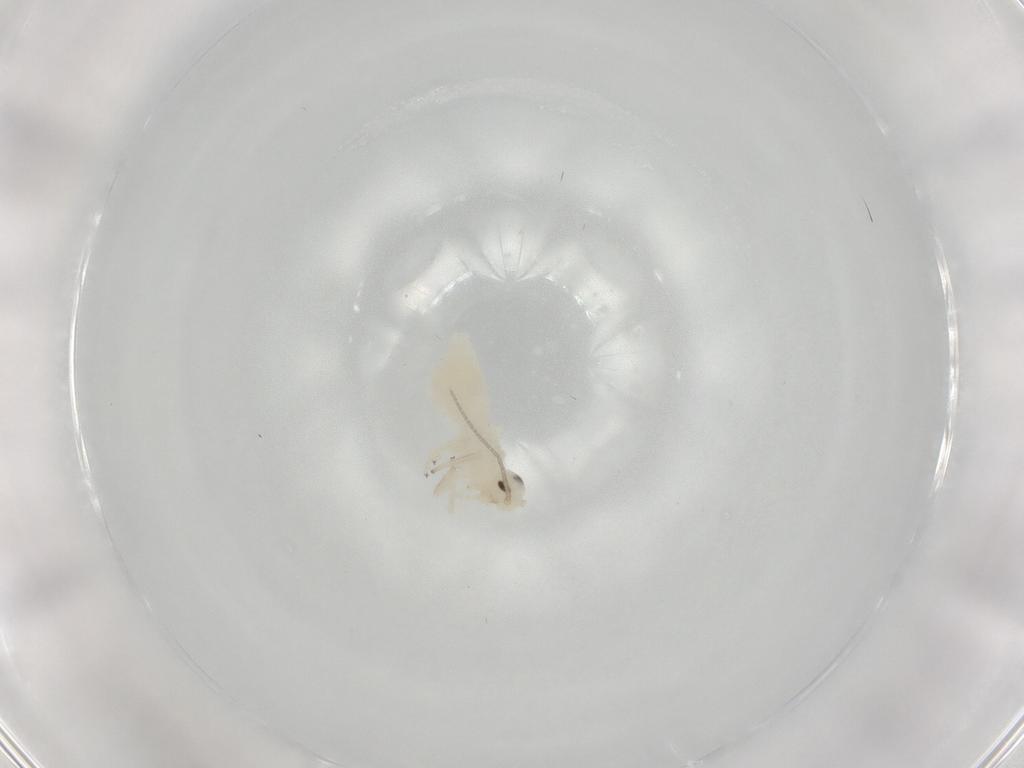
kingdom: Animalia
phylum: Arthropoda
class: Insecta
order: Psocodea
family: Caeciliusidae
